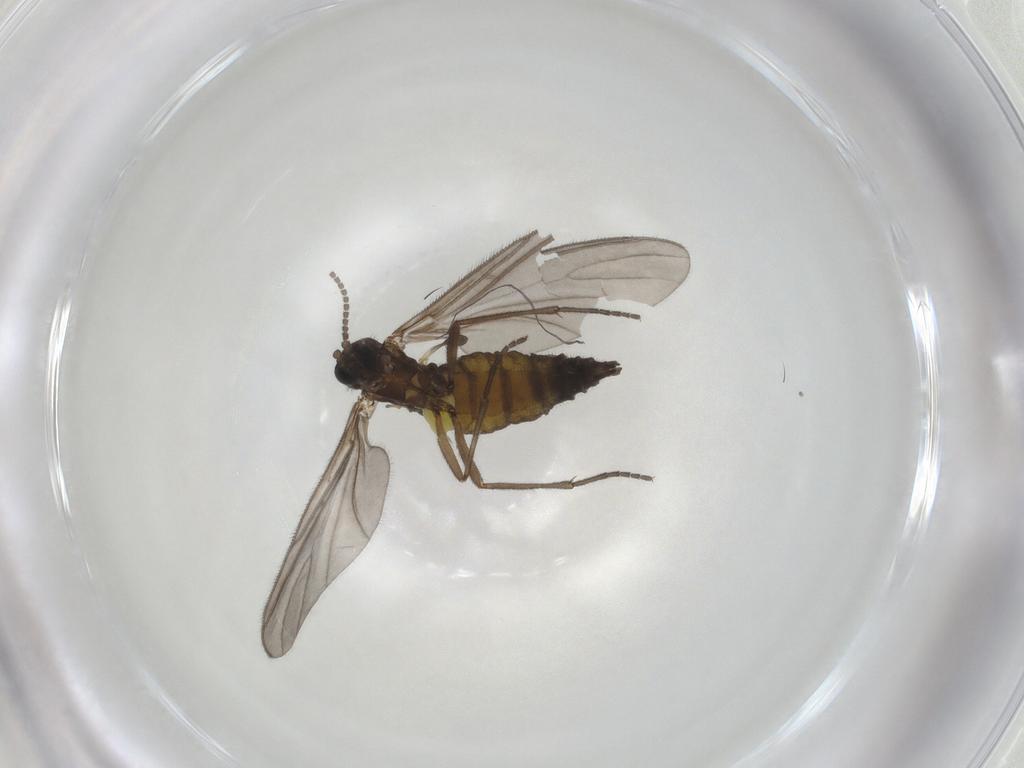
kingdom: Animalia
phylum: Arthropoda
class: Insecta
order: Diptera
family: Sciaridae
